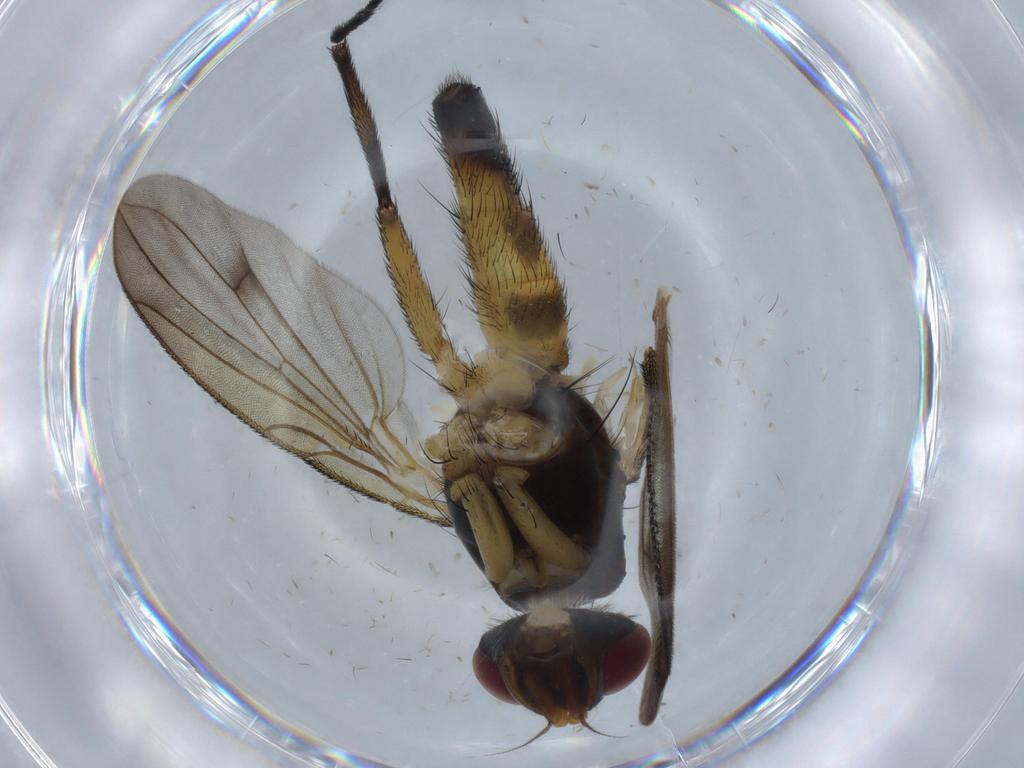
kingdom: Animalia
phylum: Arthropoda
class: Insecta
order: Diptera
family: Tachinidae
